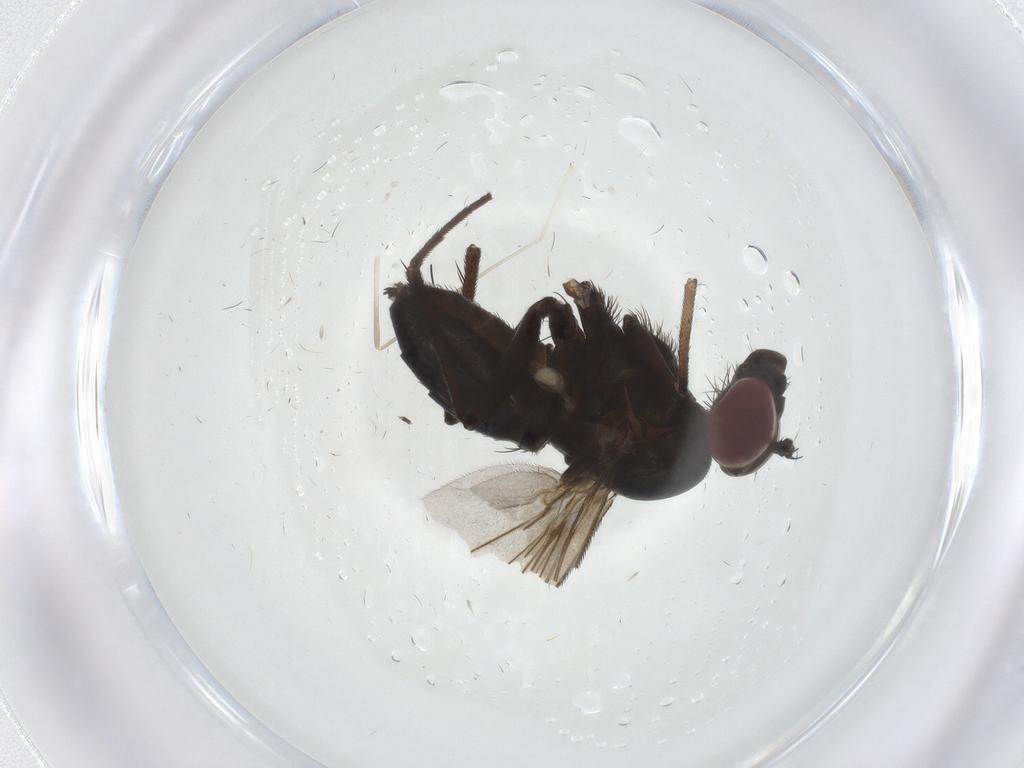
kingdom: Animalia
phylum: Arthropoda
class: Insecta
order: Diptera
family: Dolichopodidae
